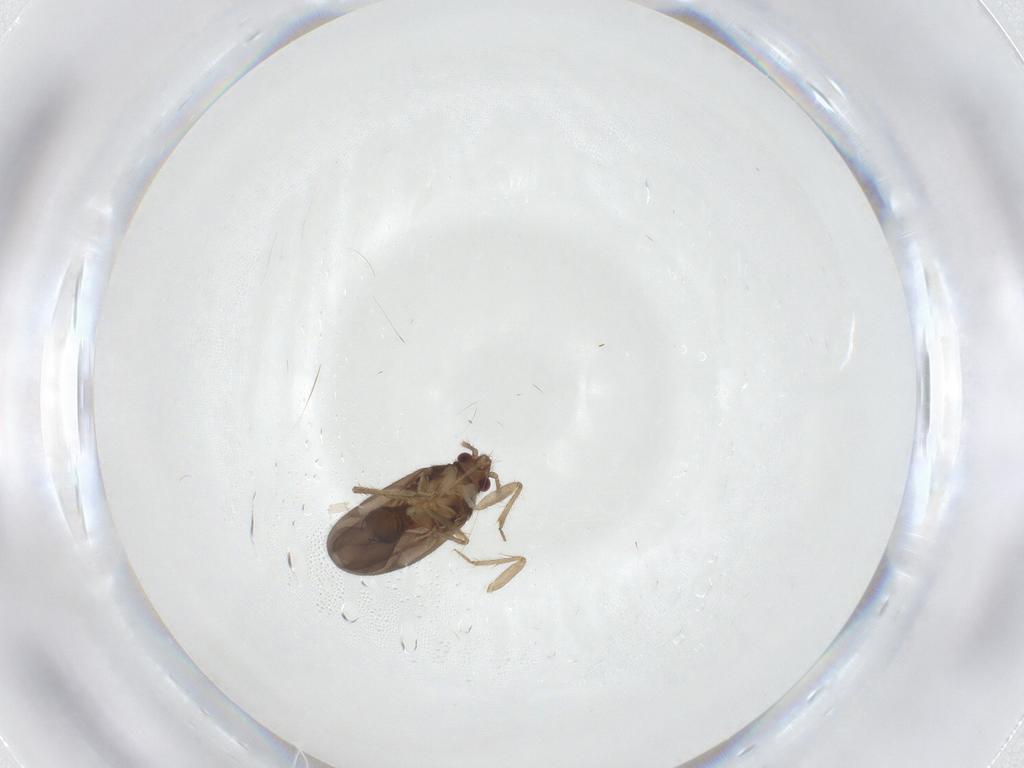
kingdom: Animalia
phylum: Arthropoda
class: Insecta
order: Hemiptera
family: Ceratocombidae
